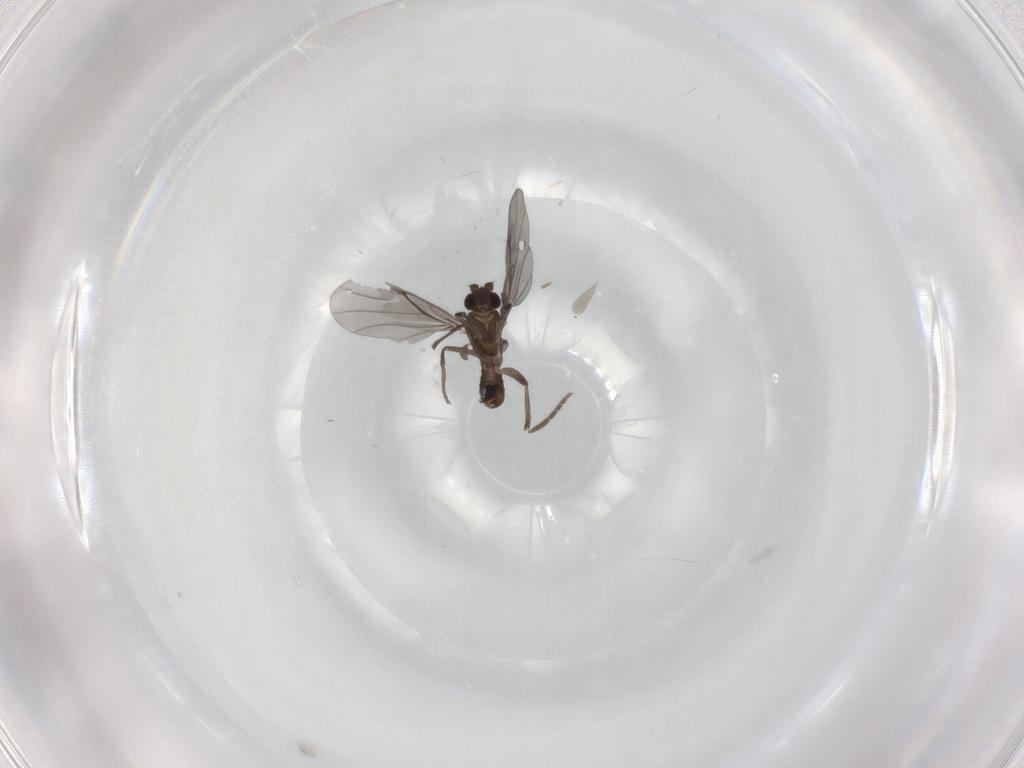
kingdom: Animalia
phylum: Arthropoda
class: Insecta
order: Diptera
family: Phoridae
